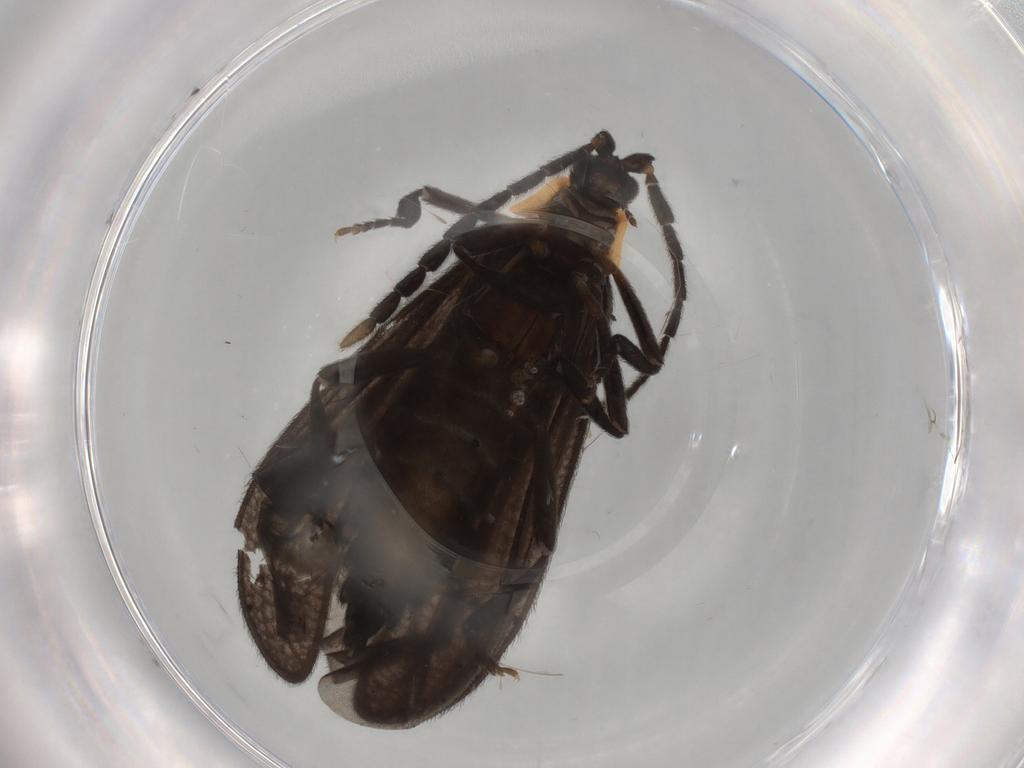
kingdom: Animalia
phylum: Arthropoda
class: Insecta
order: Coleoptera
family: Lycidae
